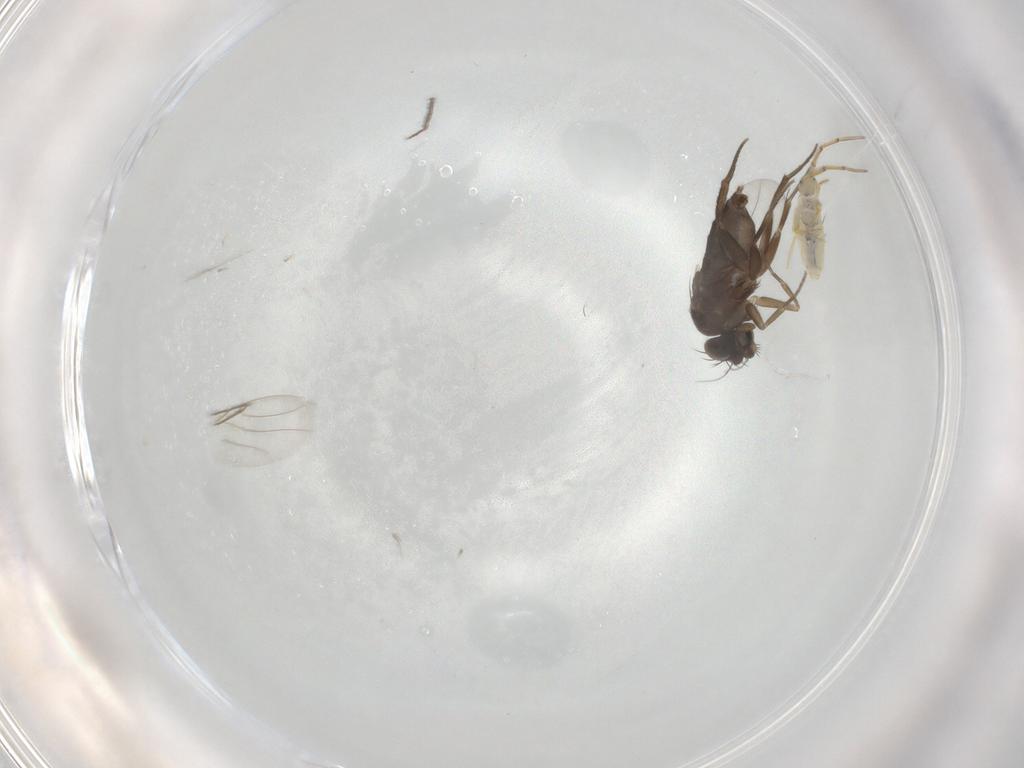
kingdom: Animalia
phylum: Arthropoda
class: Insecta
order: Diptera
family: Phoridae
